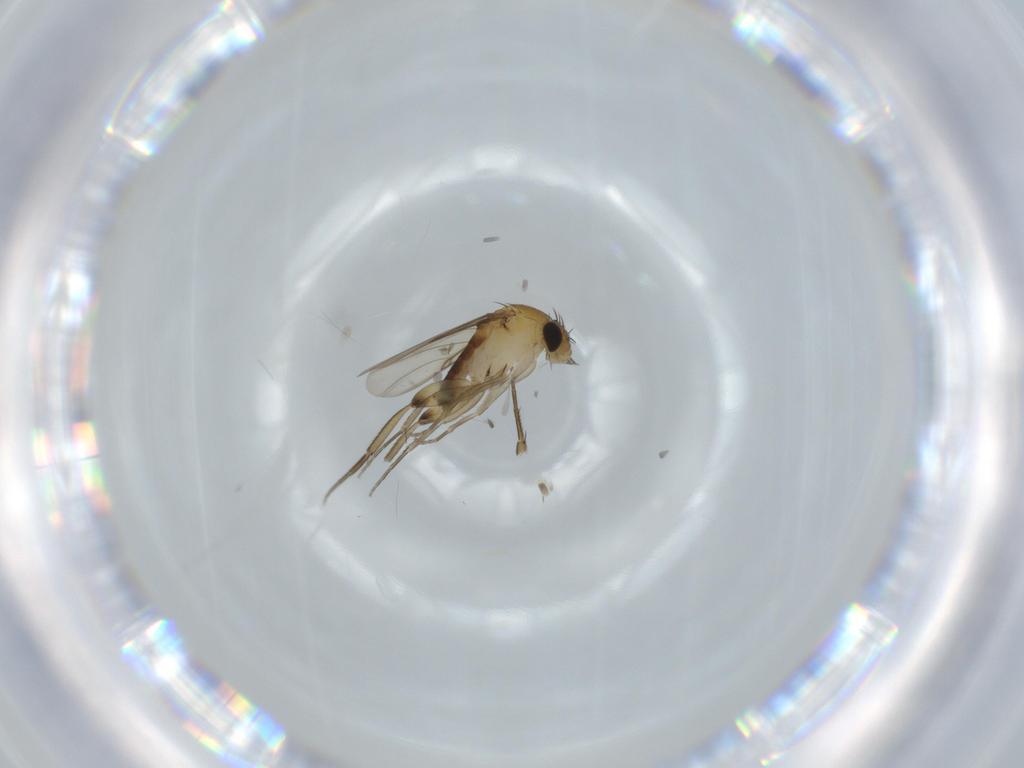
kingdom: Animalia
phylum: Arthropoda
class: Insecta
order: Diptera
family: Phoridae
